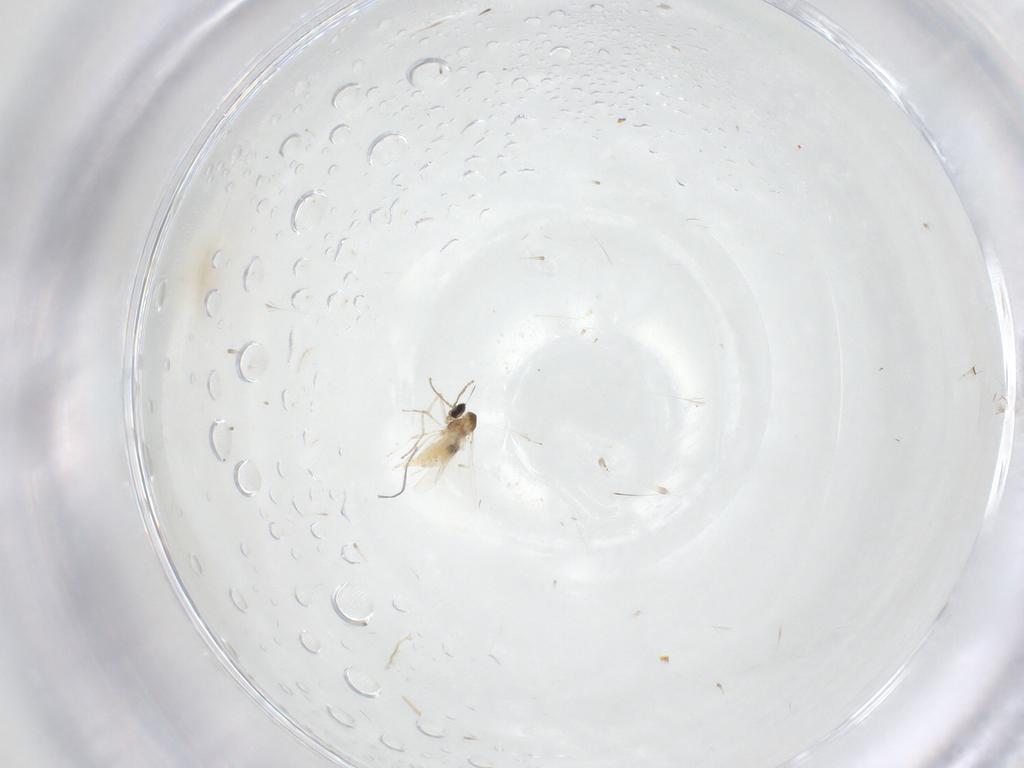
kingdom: Animalia
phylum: Arthropoda
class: Insecta
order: Diptera
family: Cecidomyiidae
